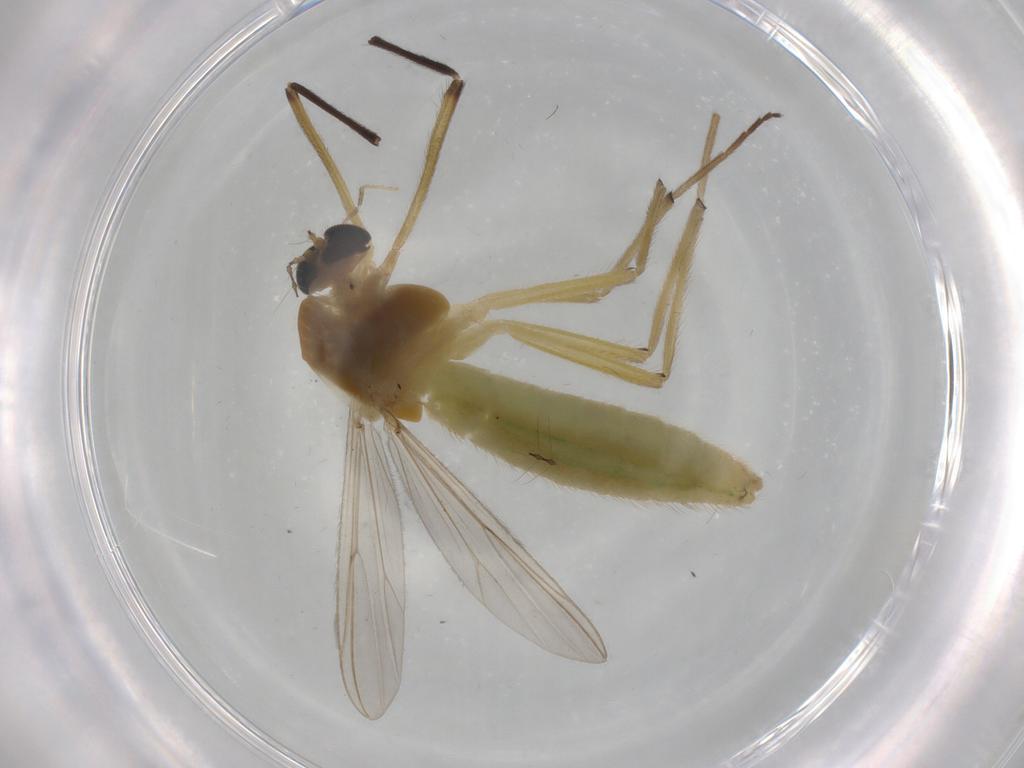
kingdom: Animalia
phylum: Arthropoda
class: Insecta
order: Diptera
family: Chironomidae
